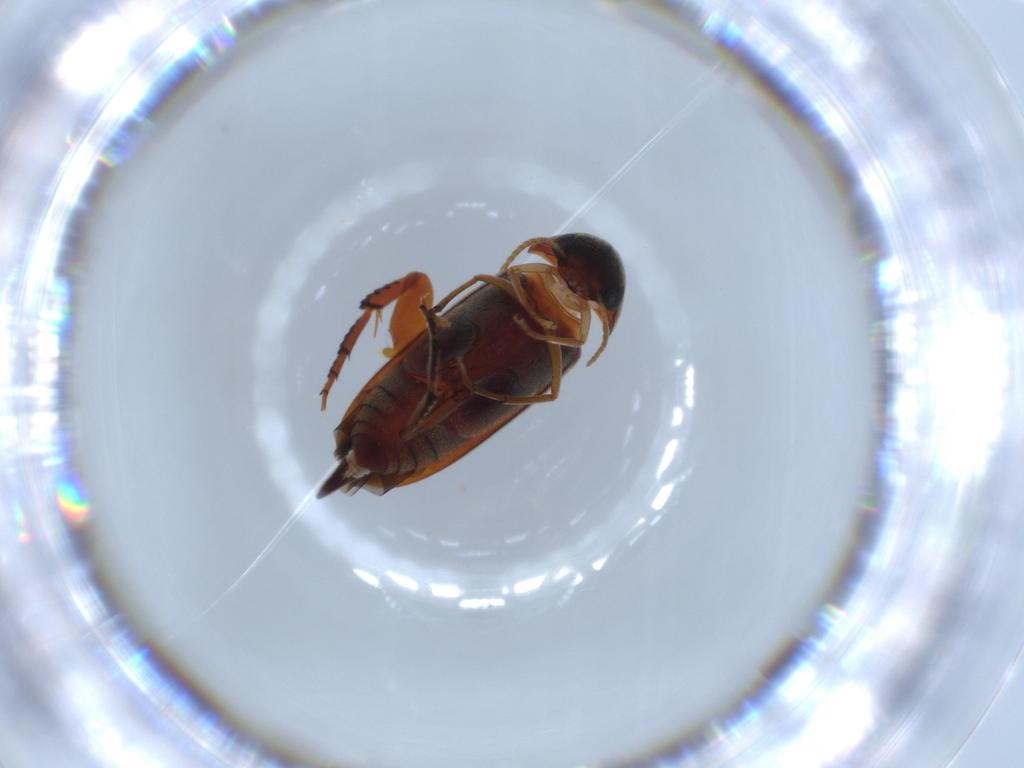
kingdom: Animalia
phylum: Arthropoda
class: Insecta
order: Coleoptera
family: Mordellidae
